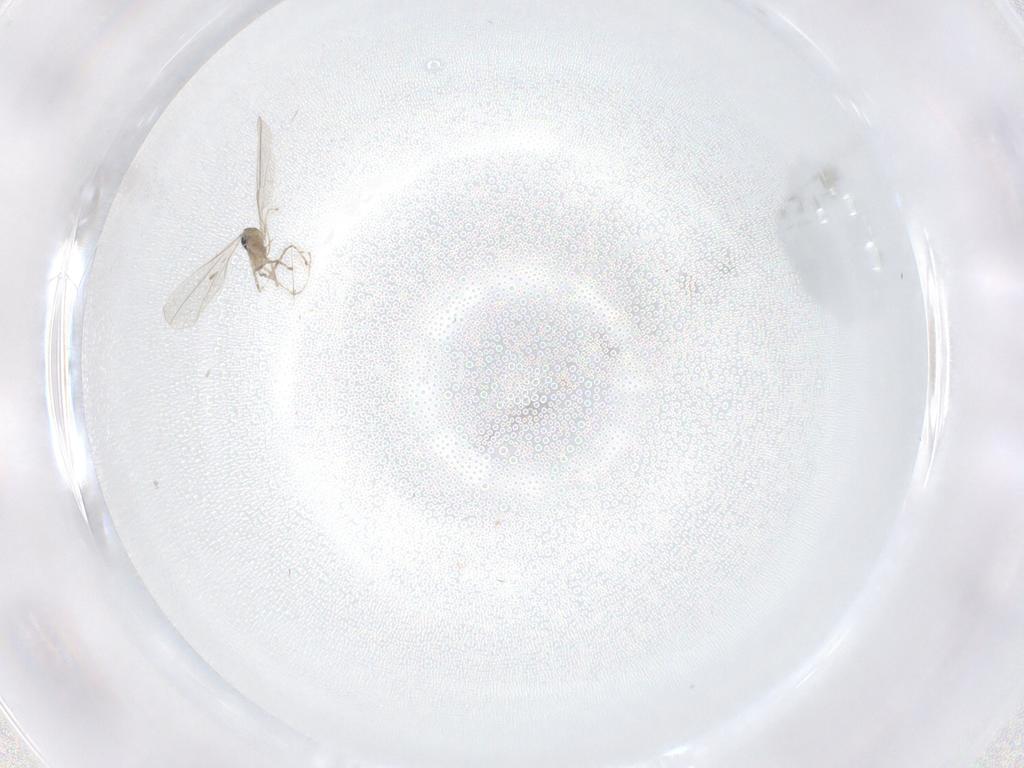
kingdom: Animalia
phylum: Arthropoda
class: Insecta
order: Diptera
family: Cecidomyiidae
